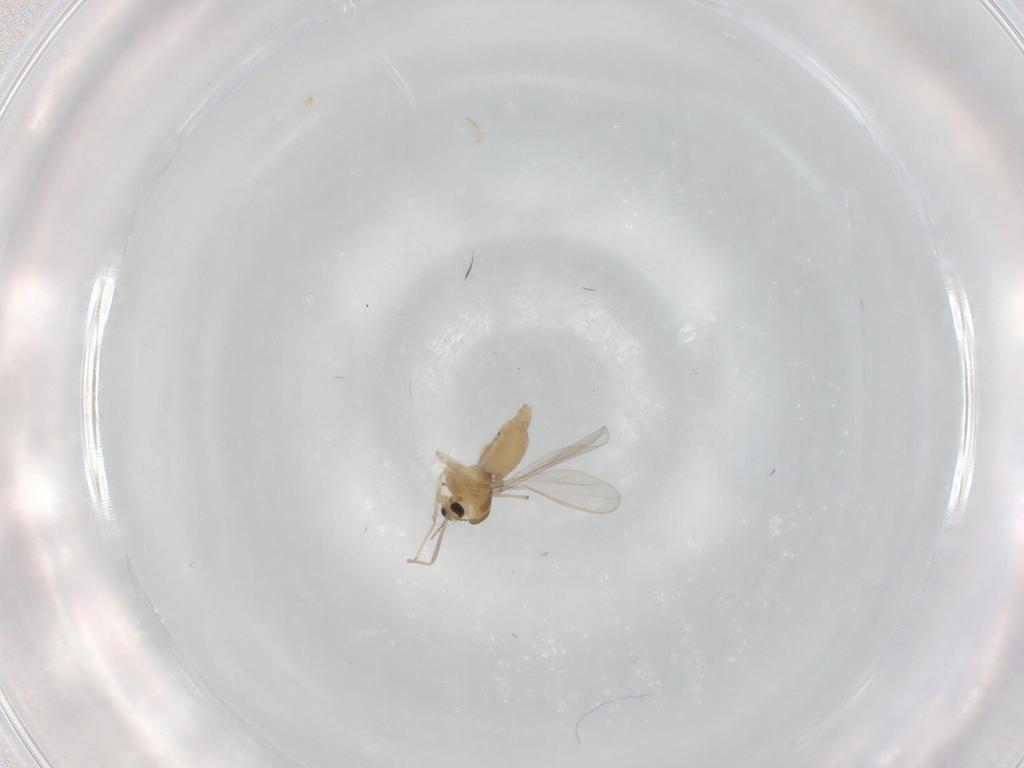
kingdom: Animalia
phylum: Arthropoda
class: Insecta
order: Diptera
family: Chironomidae
